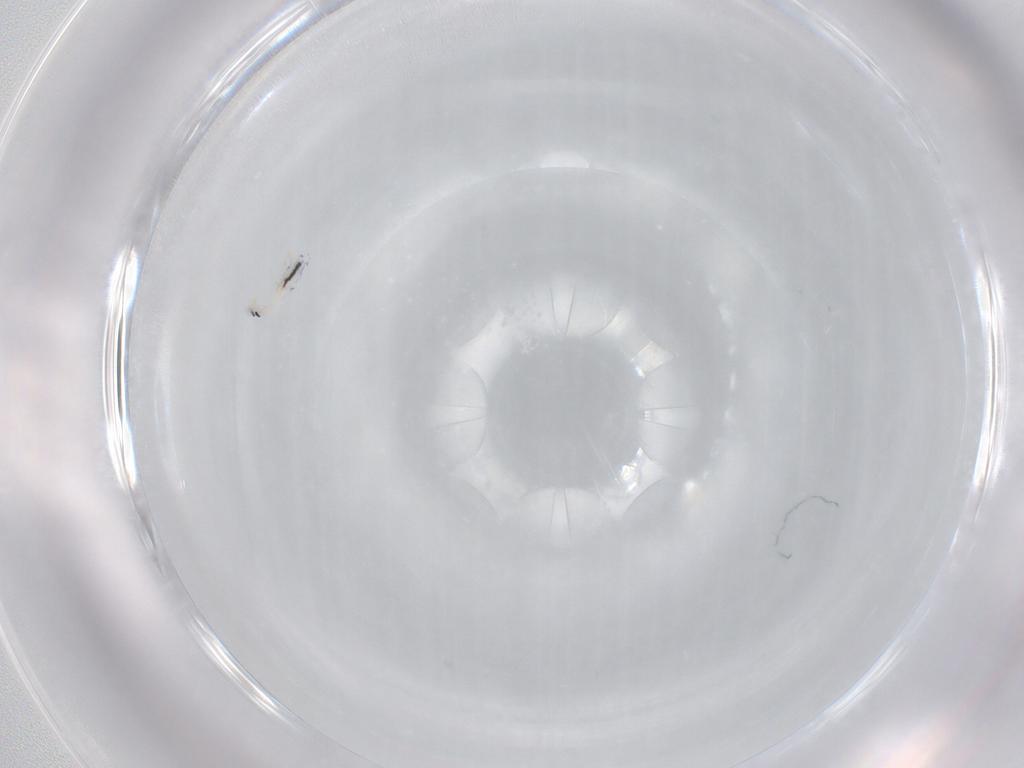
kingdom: Animalia
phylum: Arthropoda
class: Collembola
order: Entomobryomorpha
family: Entomobryidae
